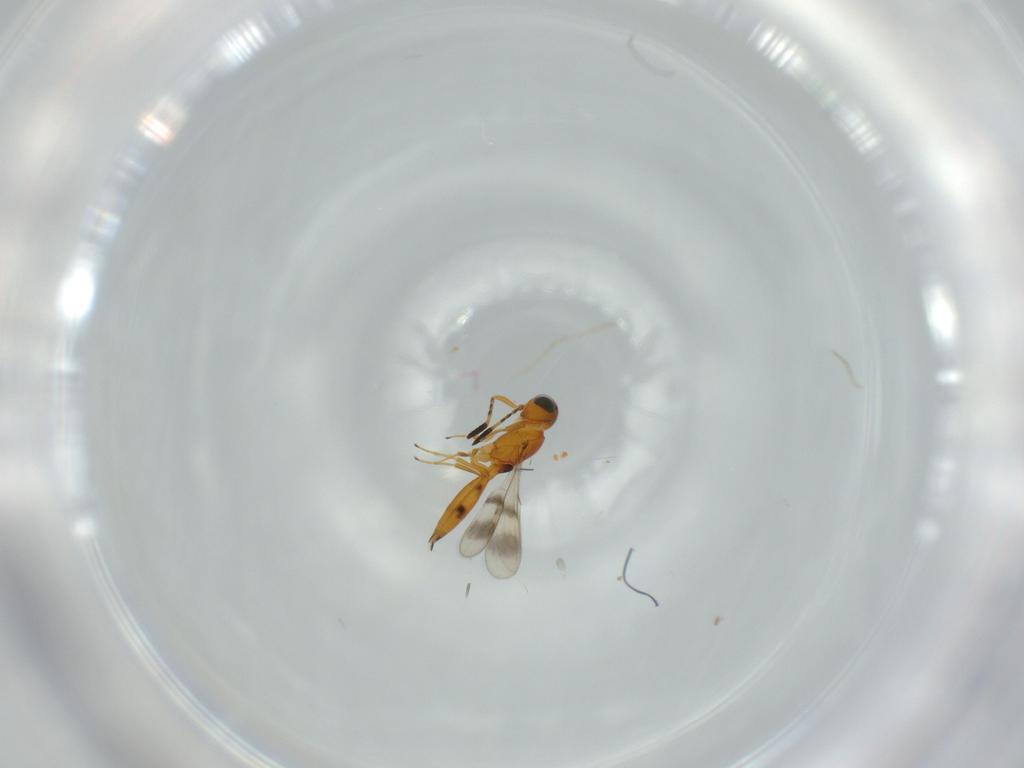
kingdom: Animalia
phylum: Arthropoda
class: Insecta
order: Hymenoptera
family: Scelionidae
